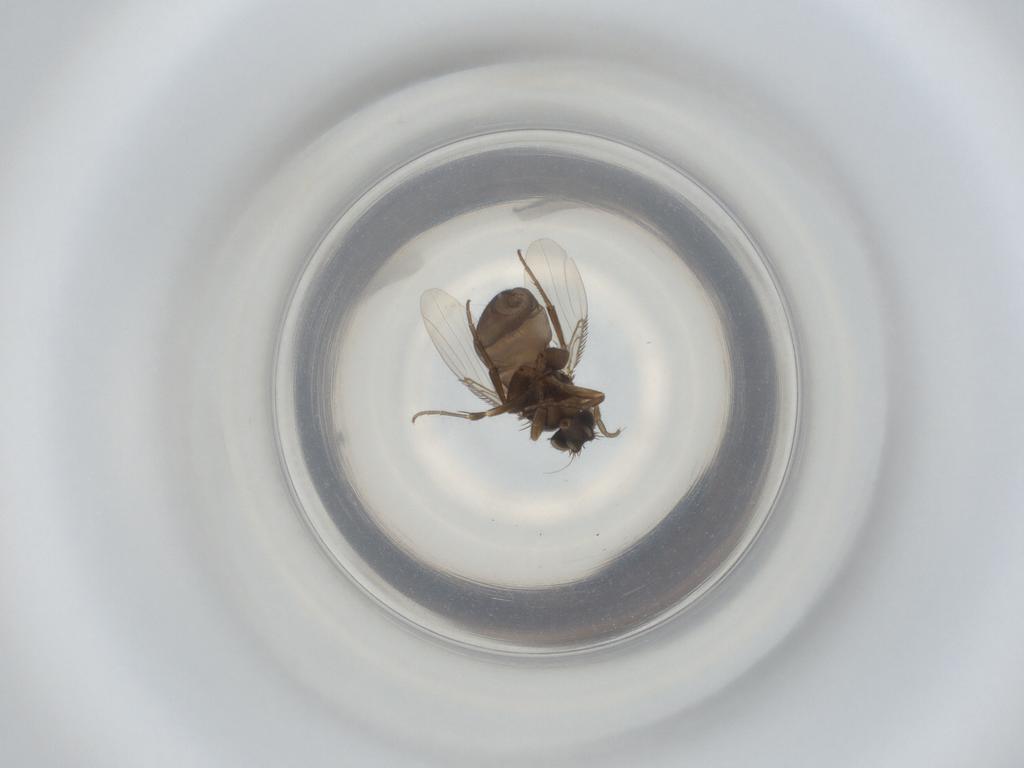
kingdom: Animalia
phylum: Arthropoda
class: Insecta
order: Diptera
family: Phoridae
